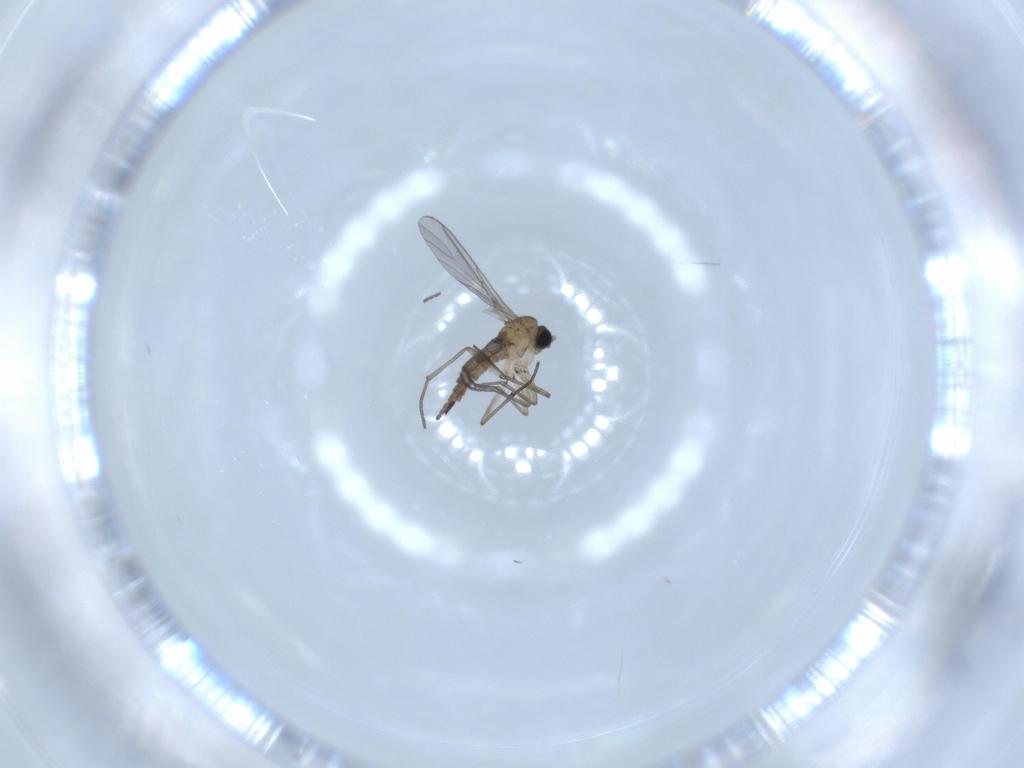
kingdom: Animalia
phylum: Arthropoda
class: Insecta
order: Diptera
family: Sciaridae
